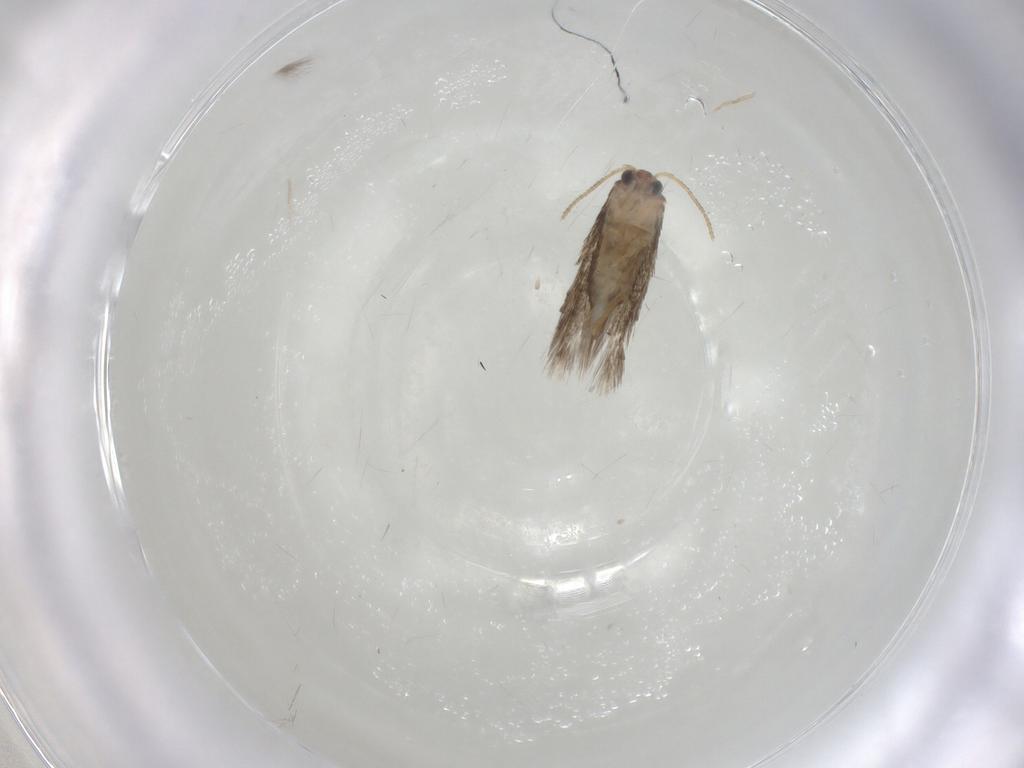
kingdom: Animalia
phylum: Arthropoda
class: Insecta
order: Lepidoptera
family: Nepticulidae
